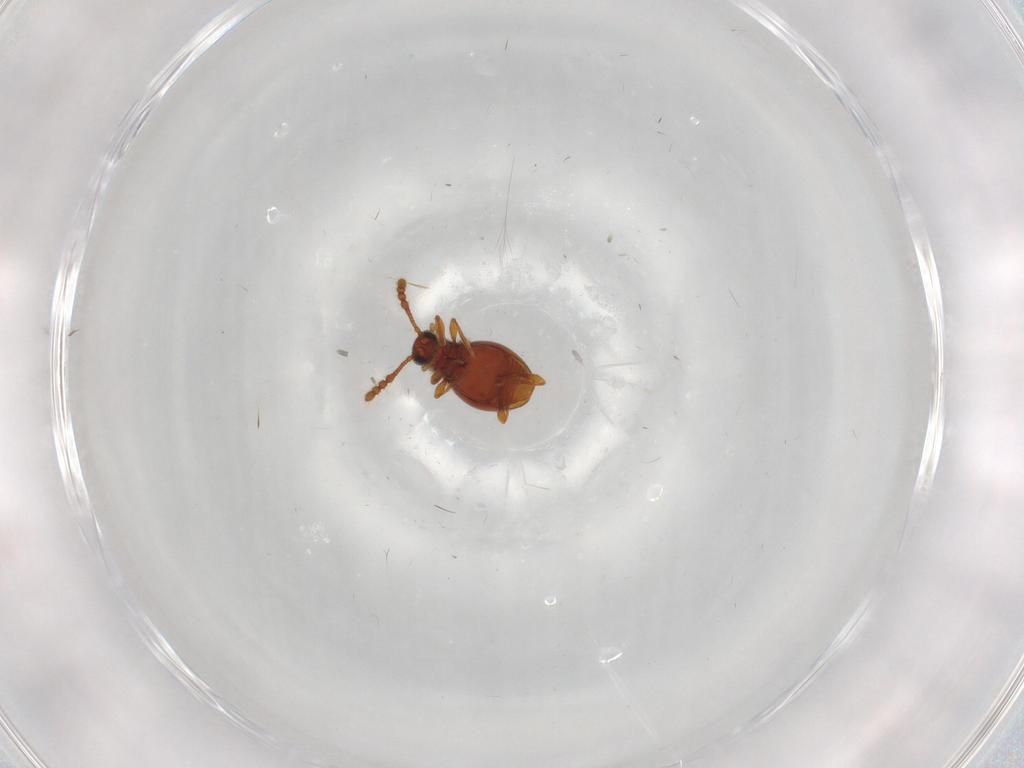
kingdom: Animalia
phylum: Arthropoda
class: Insecta
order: Coleoptera
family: Staphylinidae
